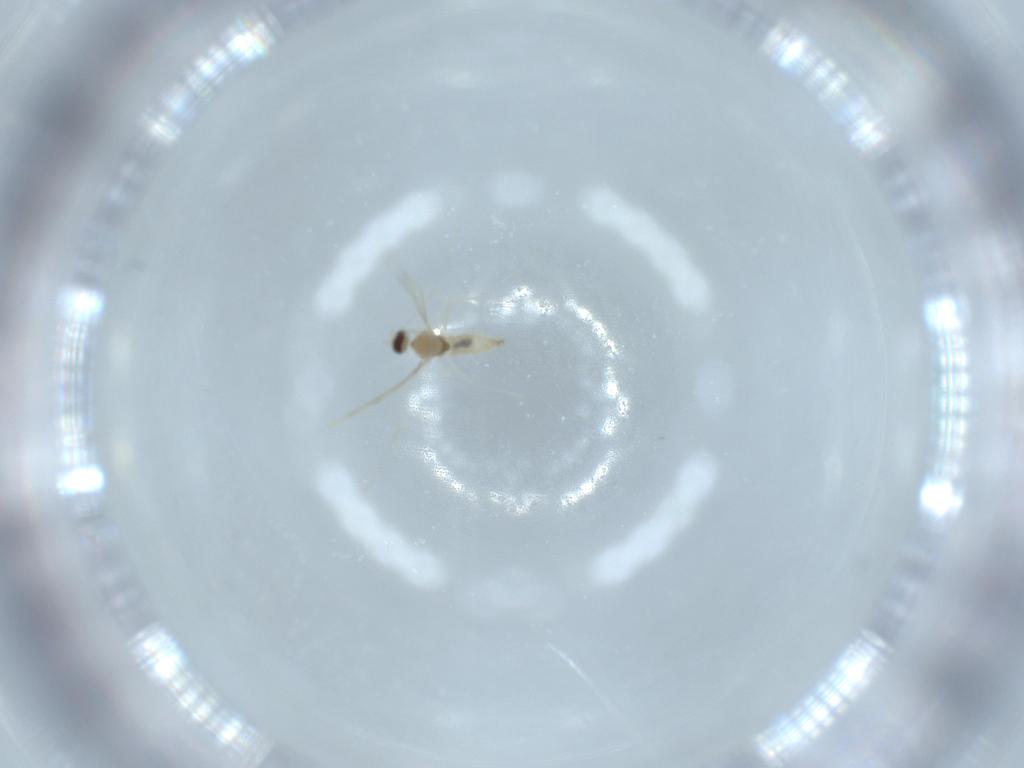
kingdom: Animalia
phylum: Arthropoda
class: Insecta
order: Diptera
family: Cecidomyiidae
